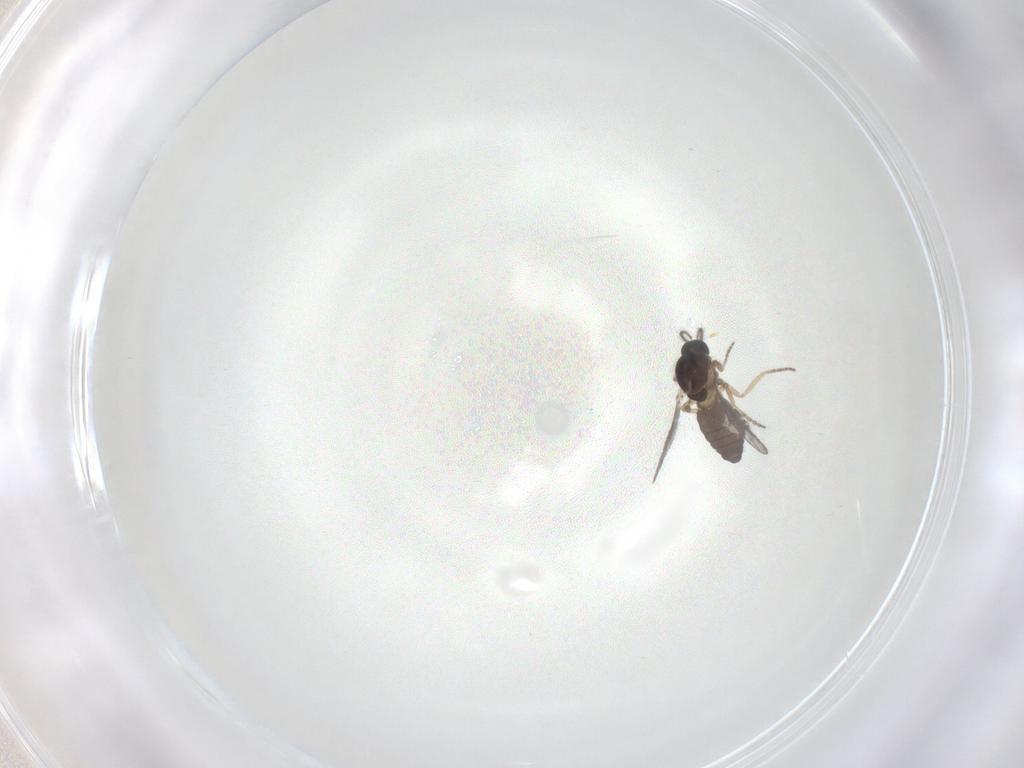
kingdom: Animalia
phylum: Arthropoda
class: Insecta
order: Diptera
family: Ceratopogonidae
